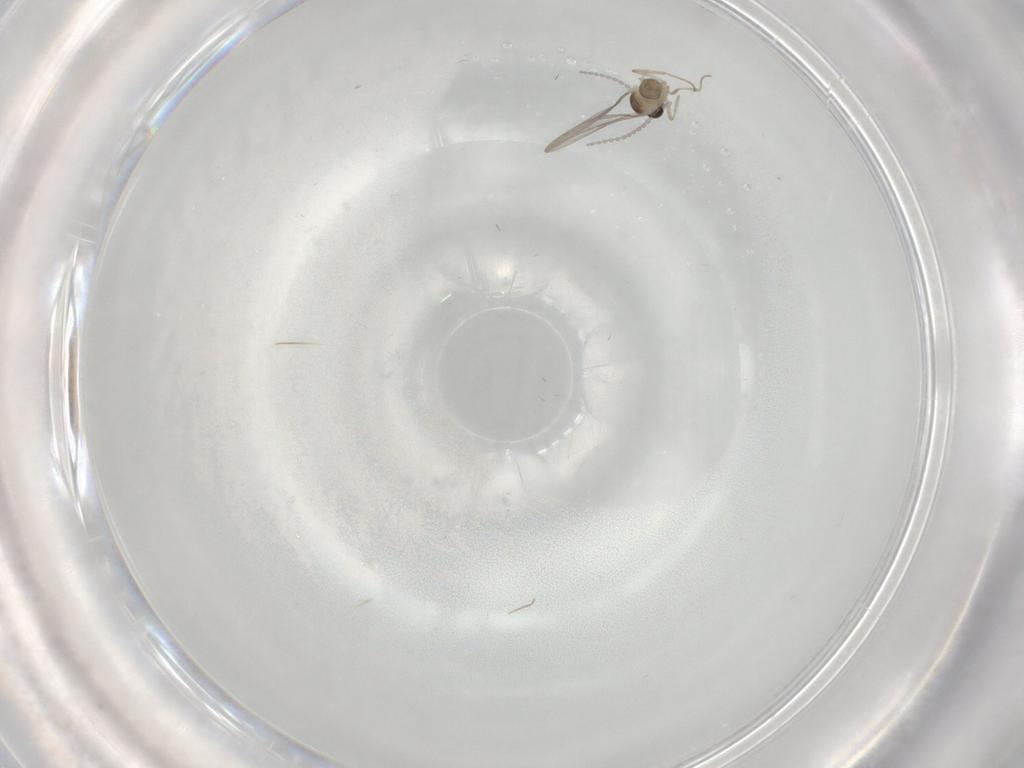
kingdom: Animalia
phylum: Arthropoda
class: Insecta
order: Diptera
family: Cecidomyiidae
